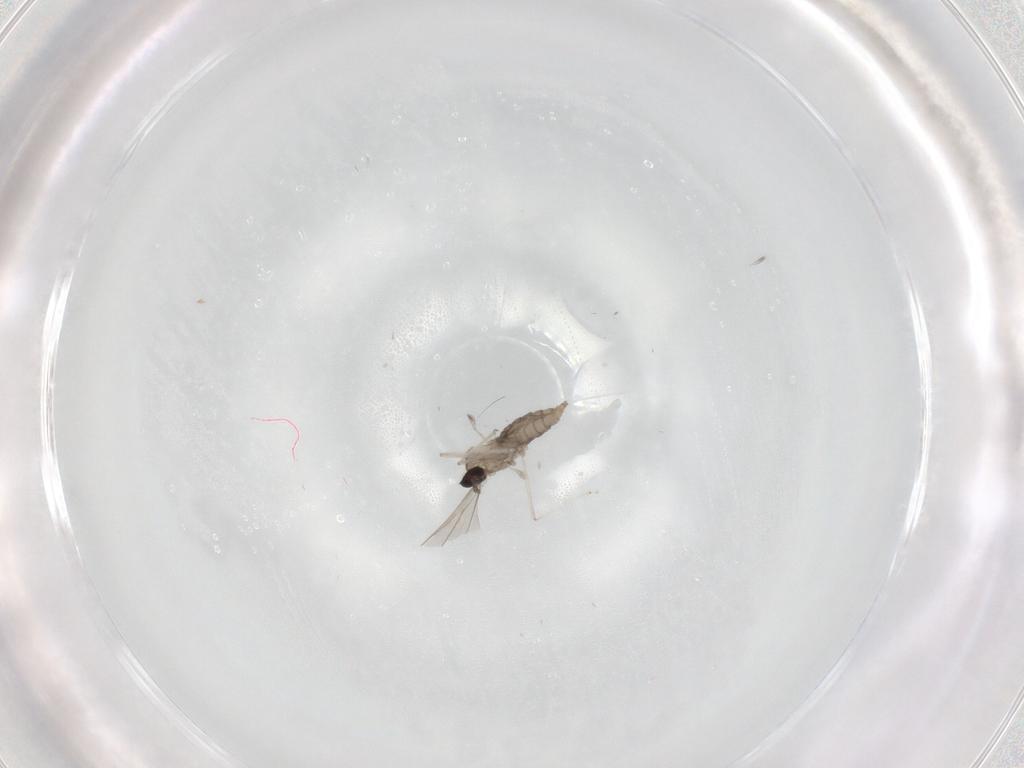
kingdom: Animalia
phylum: Arthropoda
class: Insecta
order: Diptera
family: Cecidomyiidae
